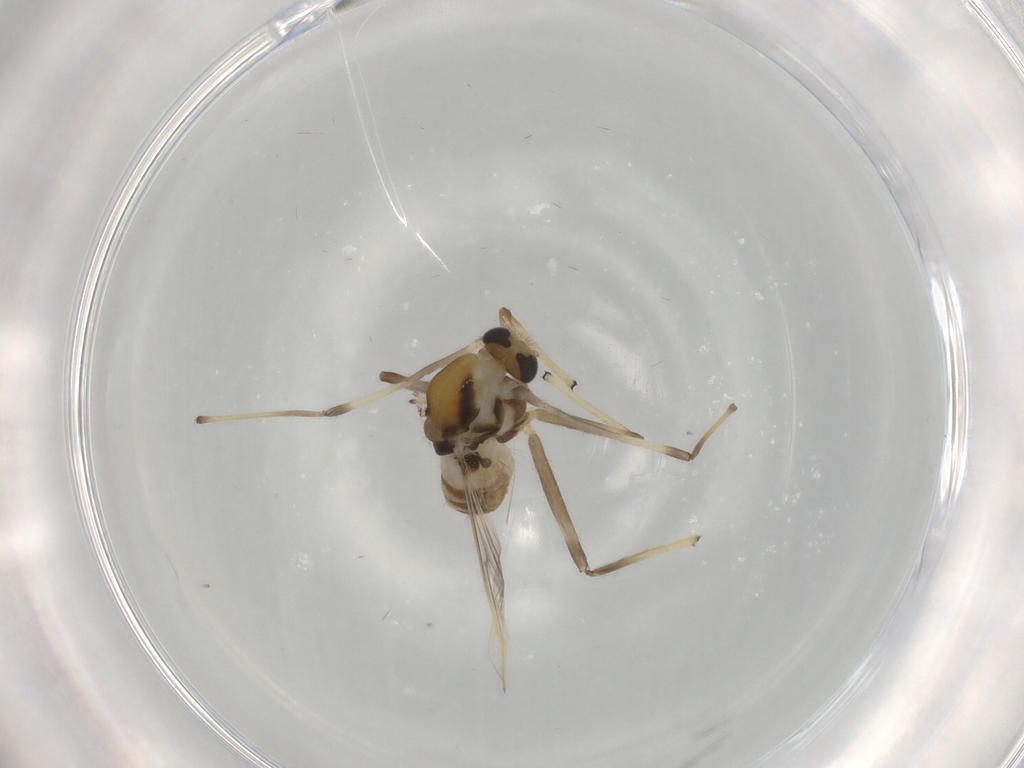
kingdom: Animalia
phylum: Arthropoda
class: Insecta
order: Diptera
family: Chironomidae
